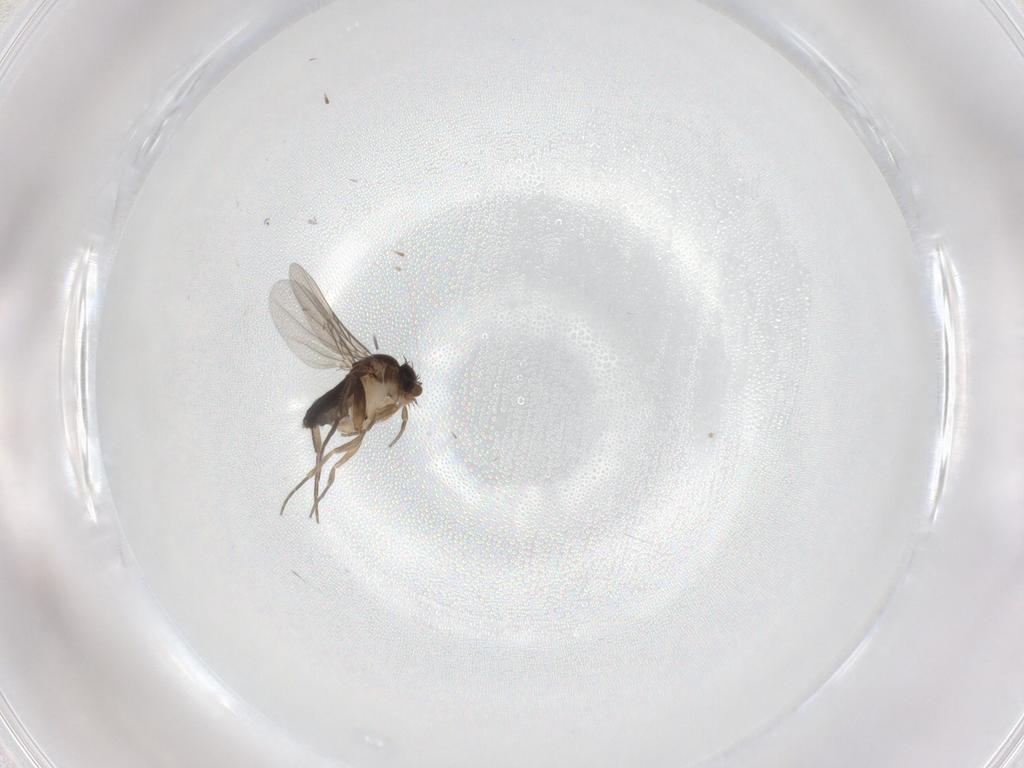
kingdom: Animalia
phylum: Arthropoda
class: Insecta
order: Diptera
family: Phoridae
